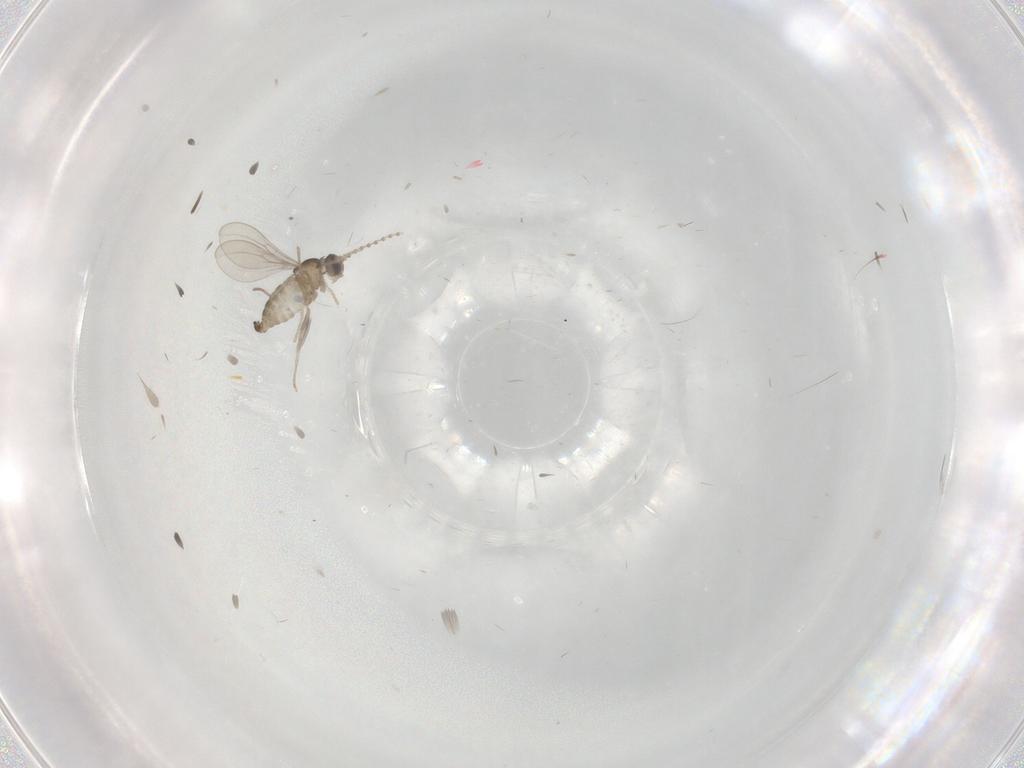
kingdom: Animalia
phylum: Arthropoda
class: Insecta
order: Diptera
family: Cecidomyiidae
